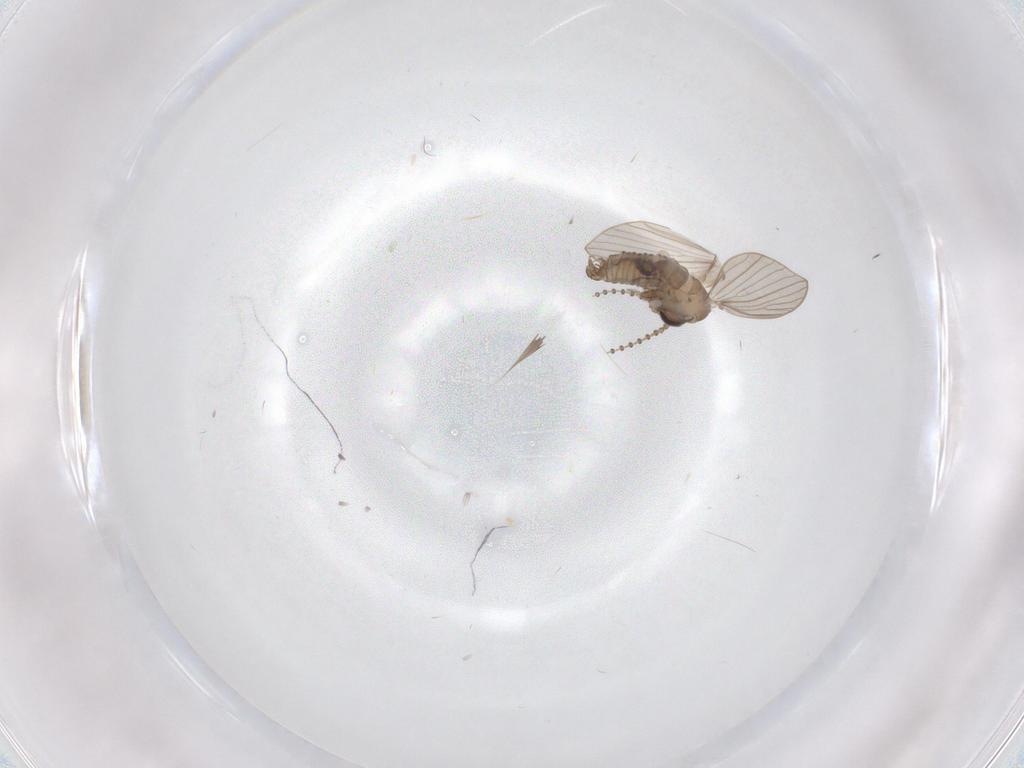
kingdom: Animalia
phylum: Arthropoda
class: Insecta
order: Diptera
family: Psychodidae
